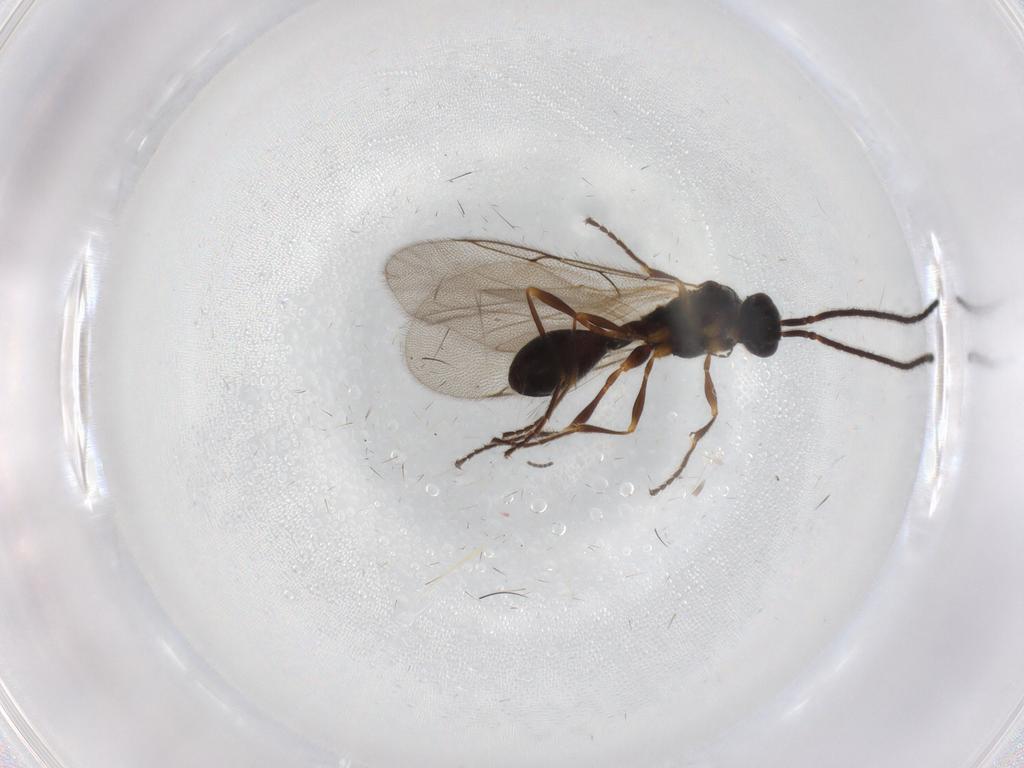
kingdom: Animalia
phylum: Arthropoda
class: Insecta
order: Hymenoptera
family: Diapriidae
